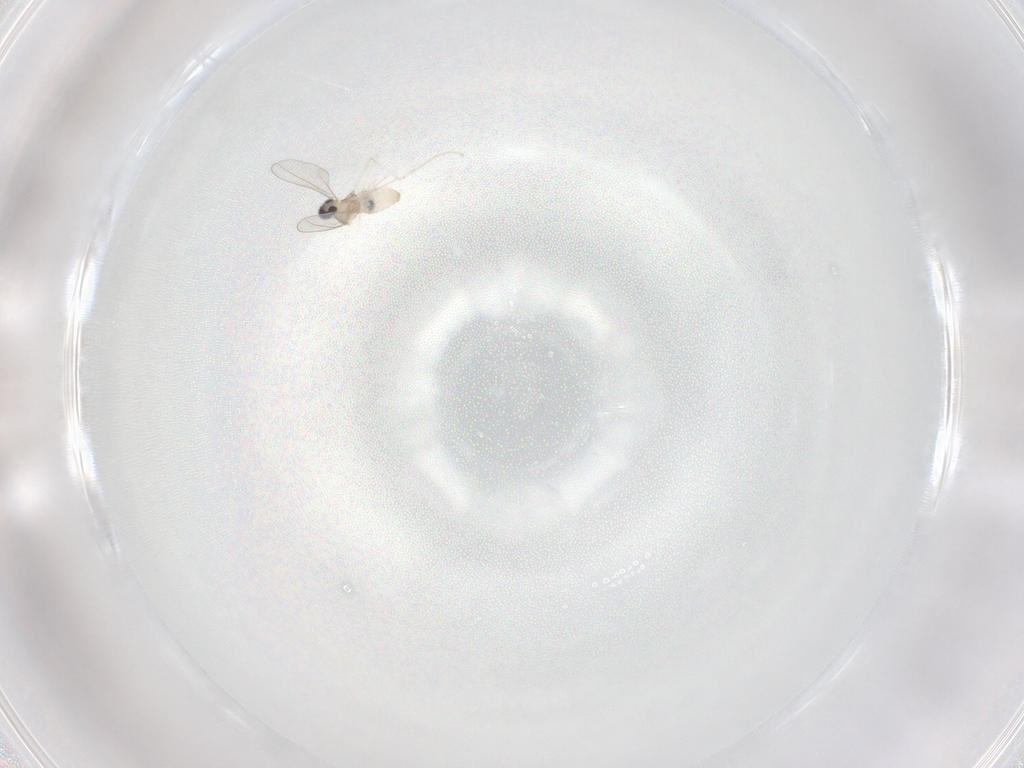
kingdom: Animalia
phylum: Arthropoda
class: Insecta
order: Diptera
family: Cecidomyiidae
